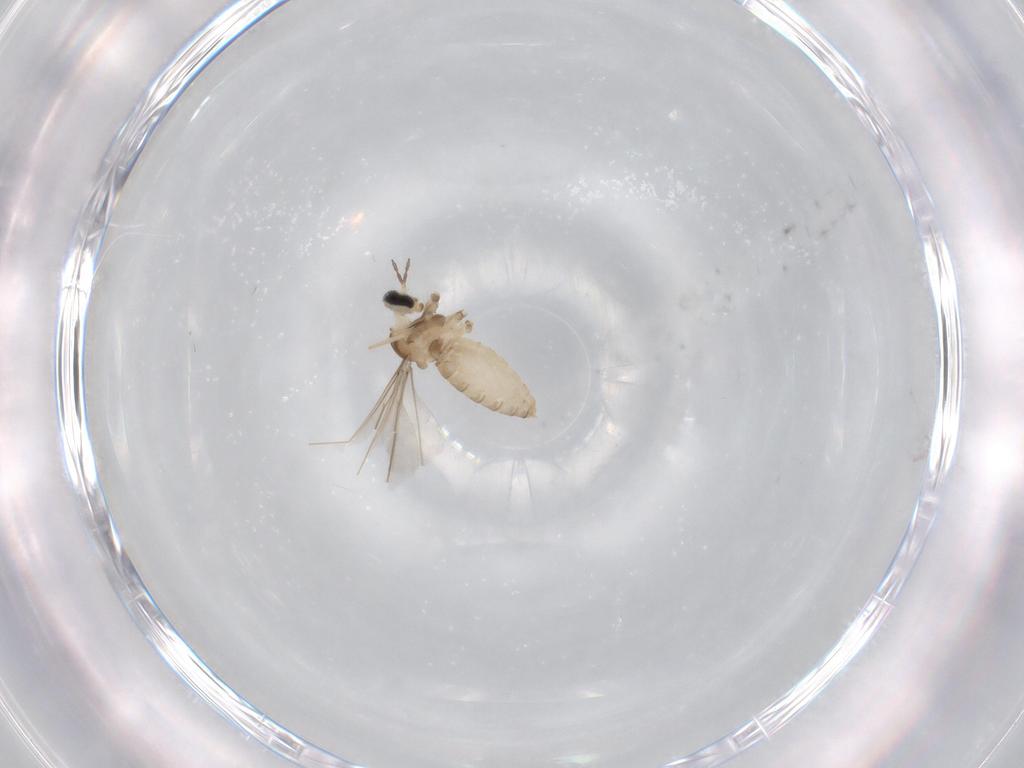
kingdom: Animalia
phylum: Arthropoda
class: Insecta
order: Diptera
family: Cecidomyiidae
